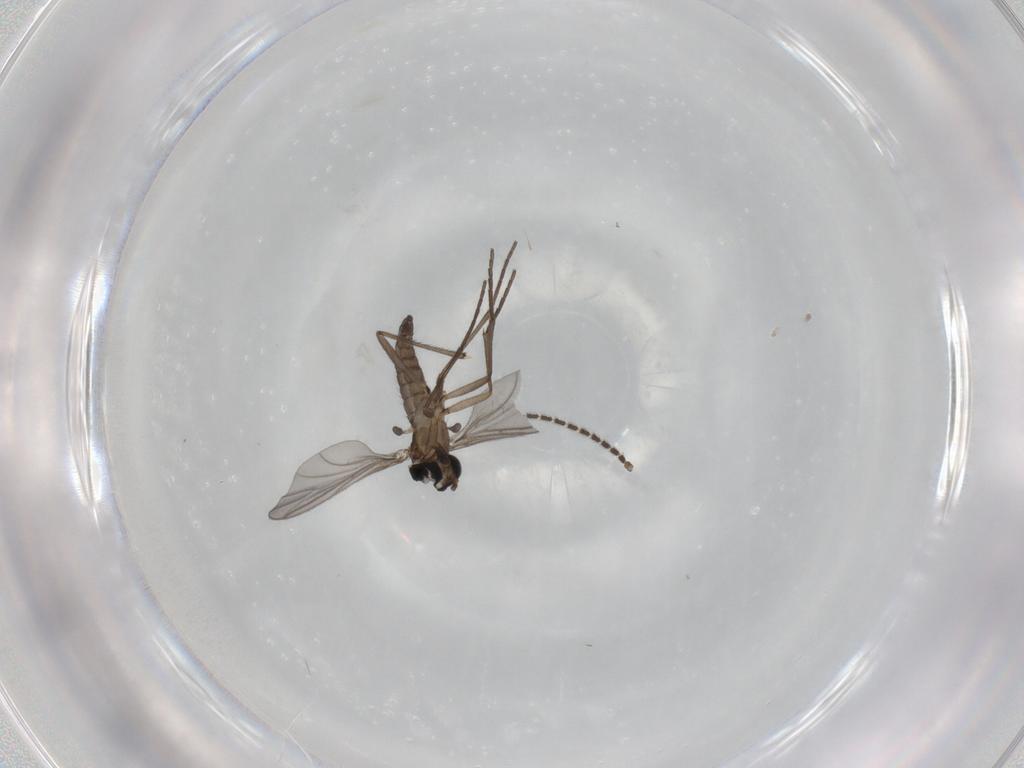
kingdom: Animalia
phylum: Arthropoda
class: Insecta
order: Diptera
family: Sciaridae
